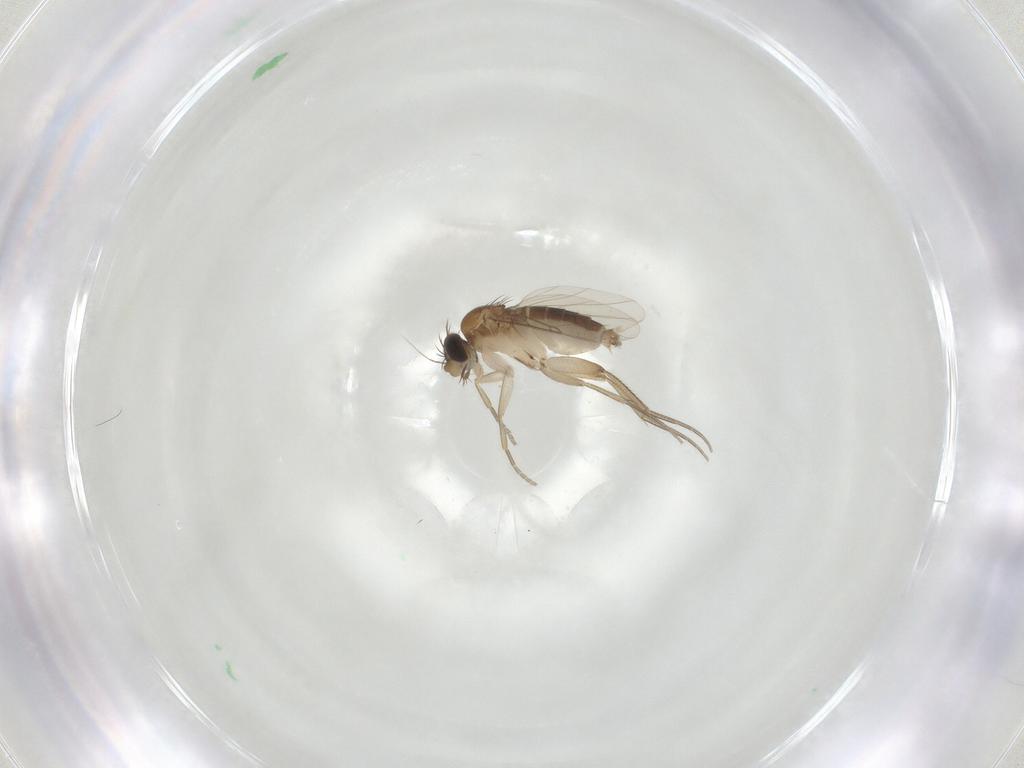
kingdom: Animalia
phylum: Arthropoda
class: Insecta
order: Diptera
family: Phoridae
